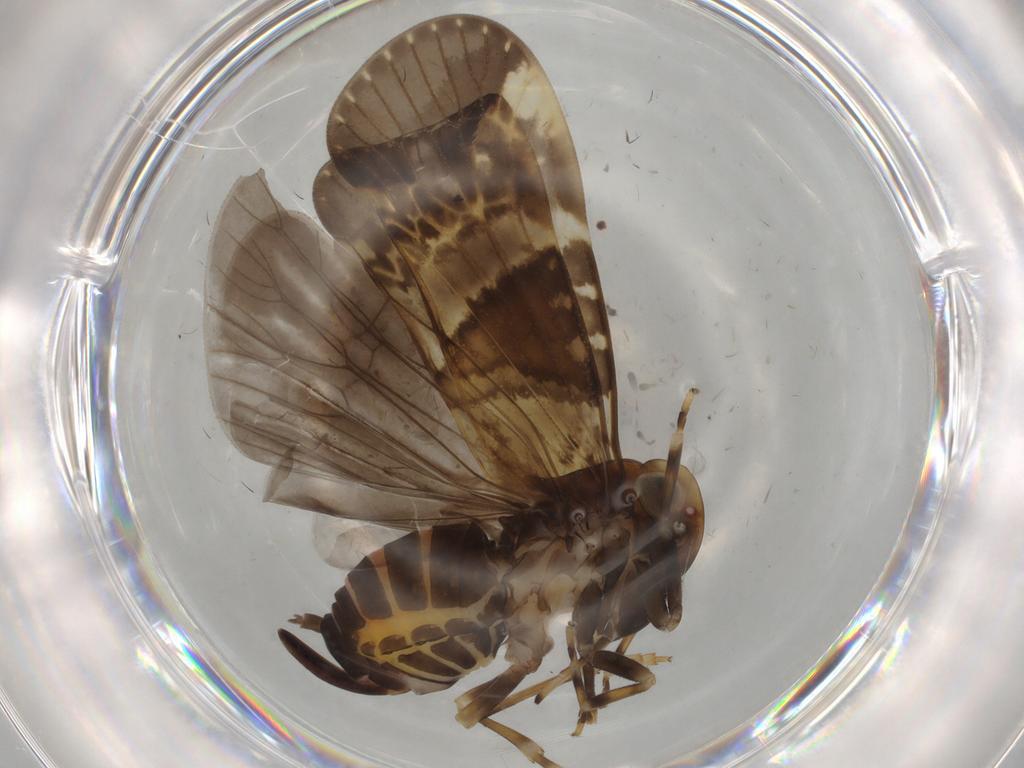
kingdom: Animalia
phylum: Arthropoda
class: Insecta
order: Hemiptera
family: Cixiidae
